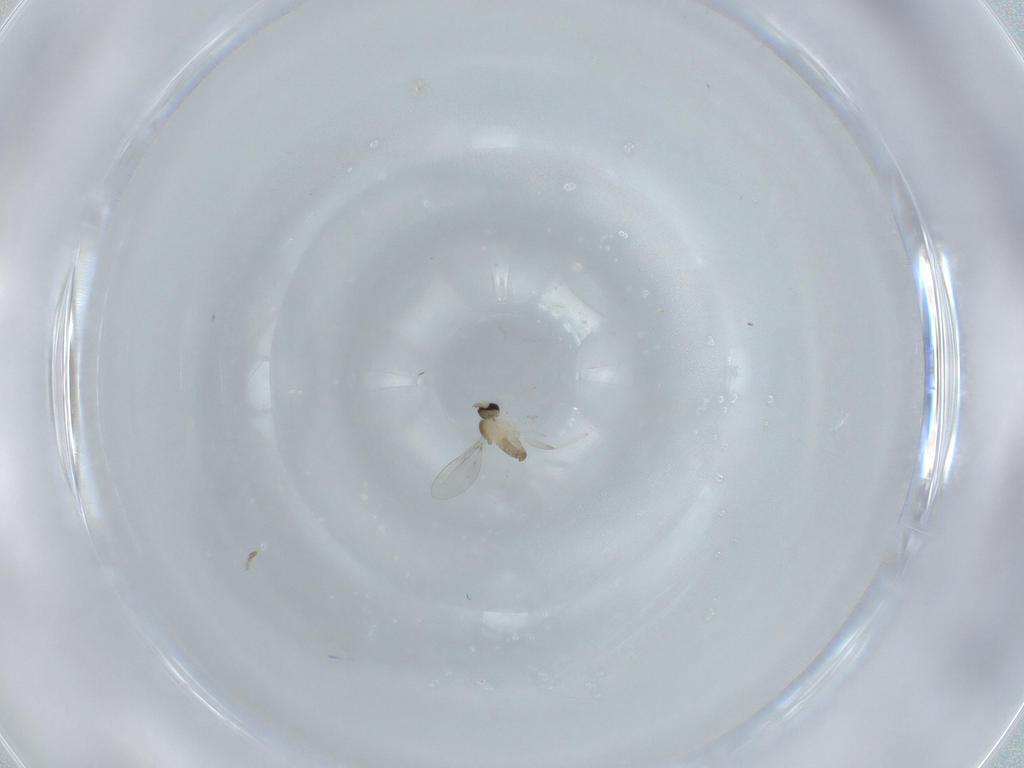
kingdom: Animalia
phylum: Arthropoda
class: Insecta
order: Diptera
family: Cecidomyiidae
